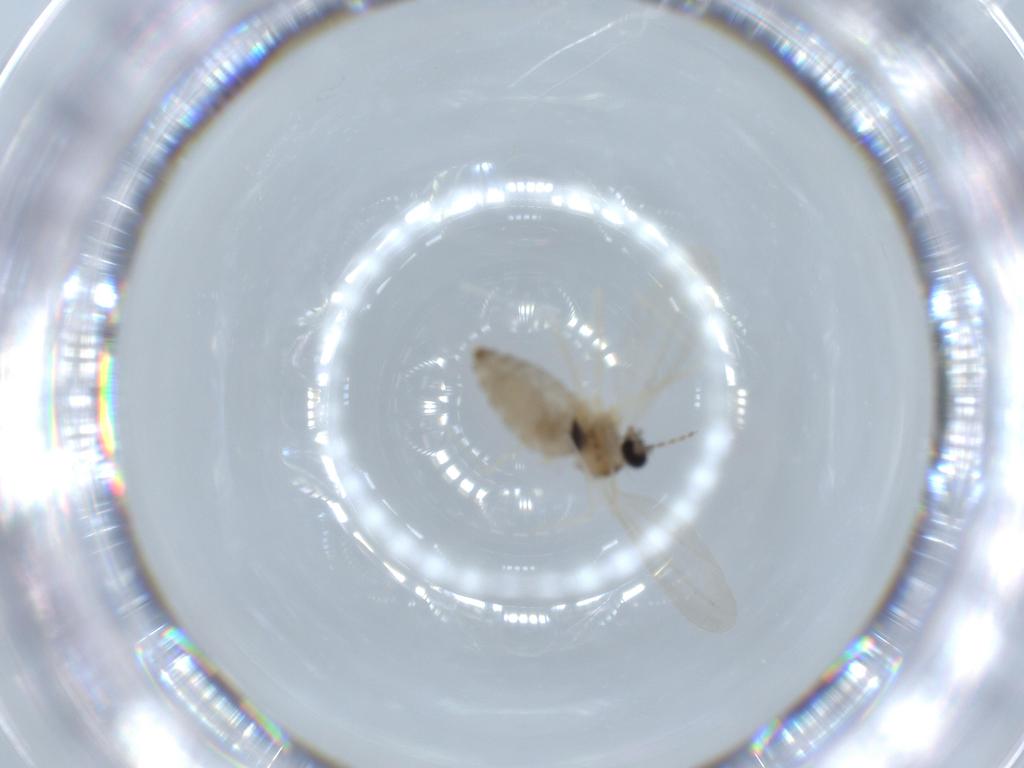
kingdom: Animalia
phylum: Arthropoda
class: Insecta
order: Diptera
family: Cecidomyiidae
